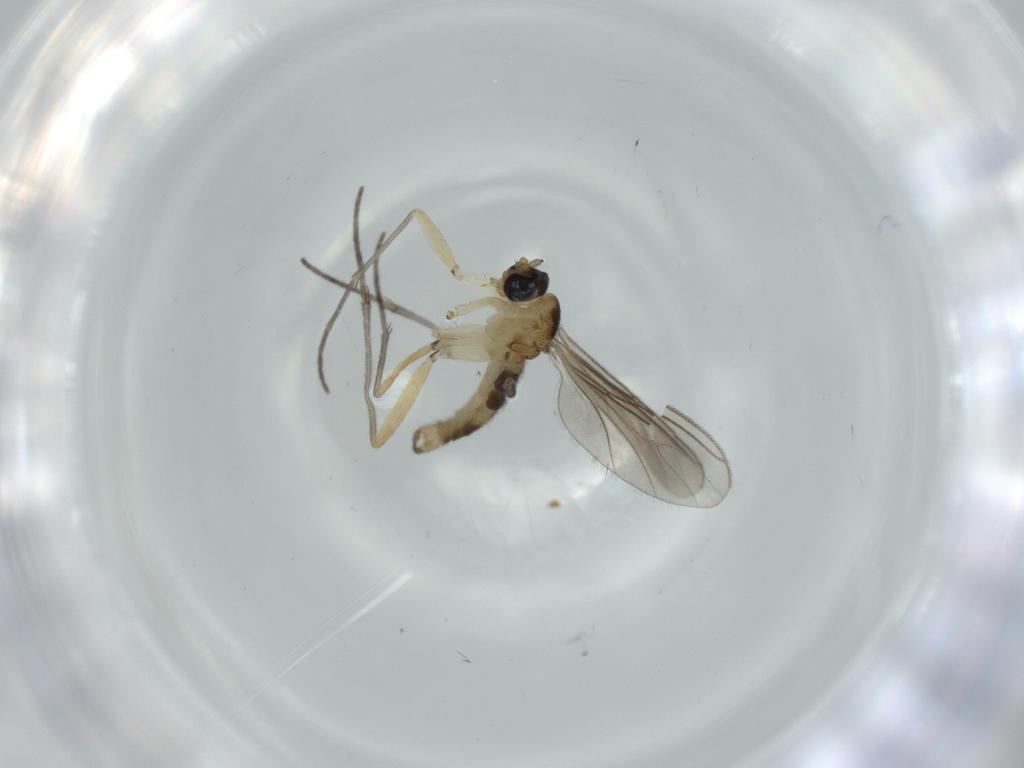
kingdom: Animalia
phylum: Arthropoda
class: Insecta
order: Diptera
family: Sciaridae
